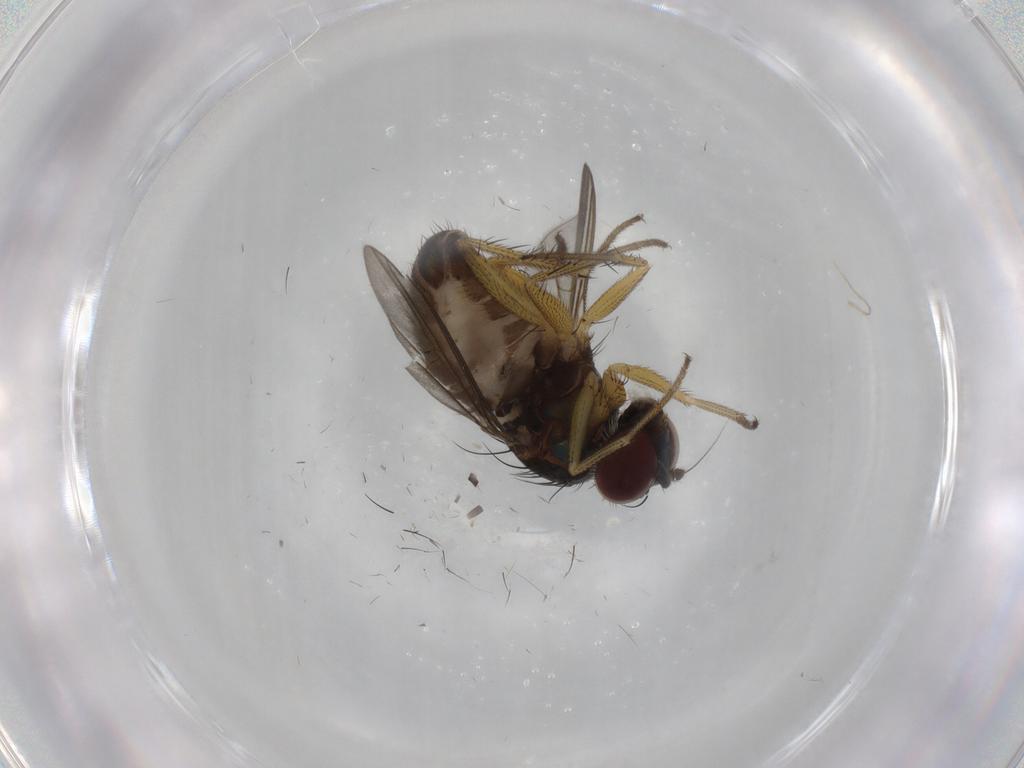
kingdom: Animalia
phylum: Arthropoda
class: Insecta
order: Diptera
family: Dolichopodidae
